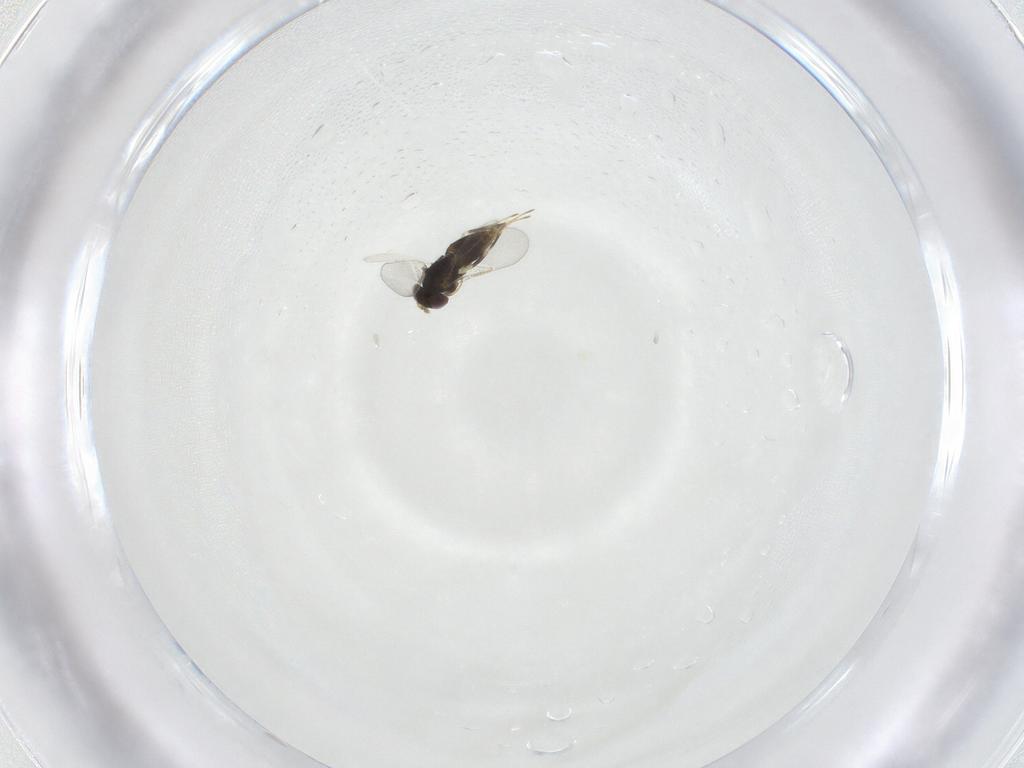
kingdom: Animalia
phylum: Arthropoda
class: Insecta
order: Hymenoptera
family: Aphelinidae
